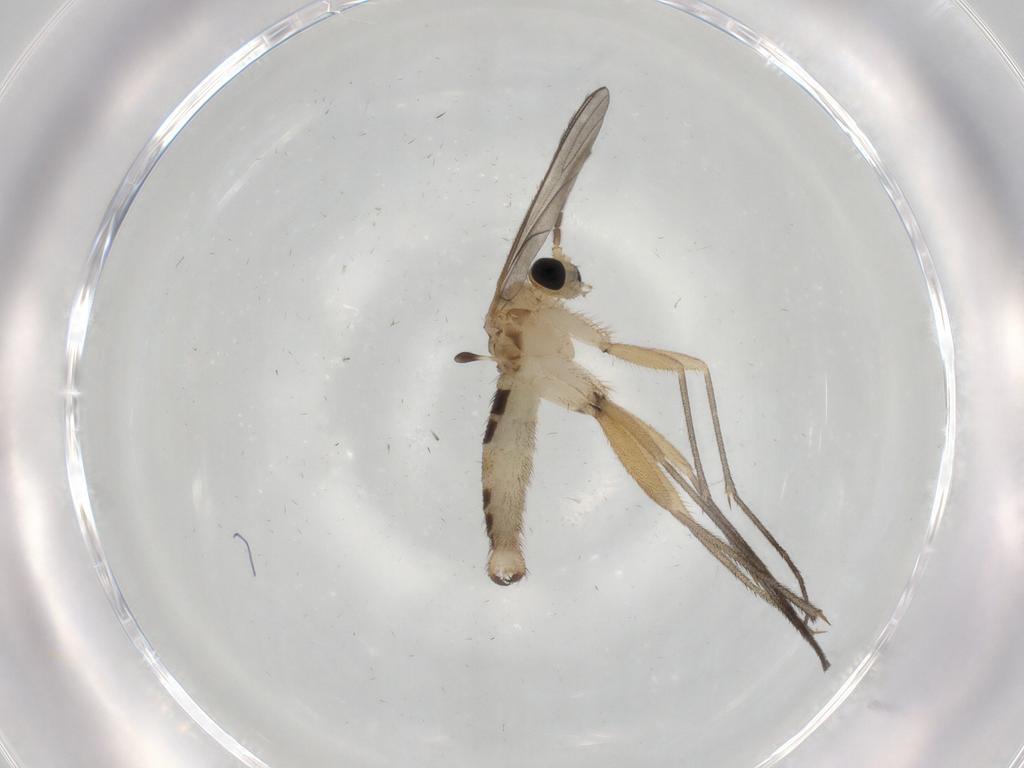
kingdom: Animalia
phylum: Arthropoda
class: Insecta
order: Diptera
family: Sciaridae
